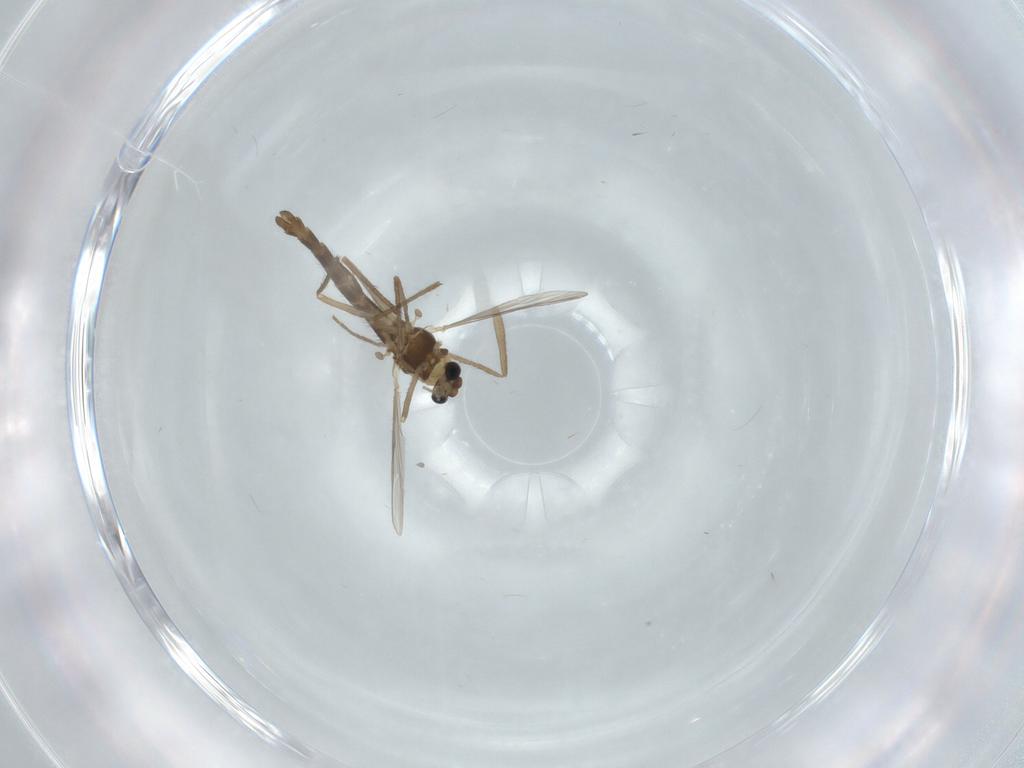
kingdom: Animalia
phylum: Arthropoda
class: Insecta
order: Diptera
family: Chironomidae
